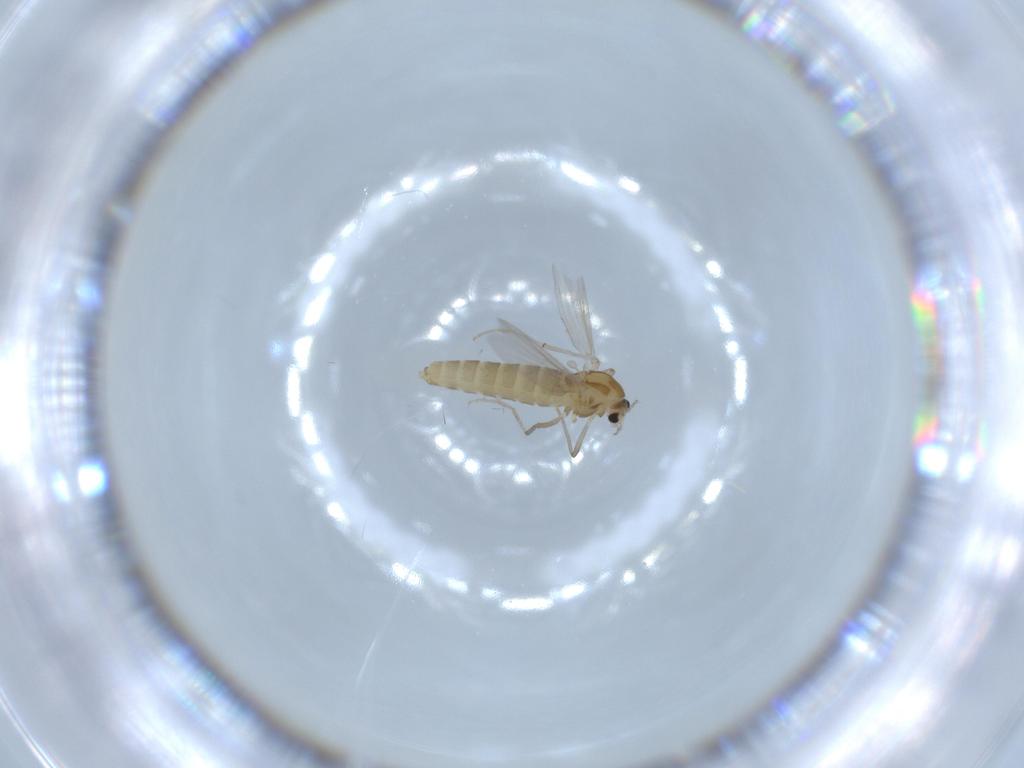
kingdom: Animalia
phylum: Arthropoda
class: Insecta
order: Diptera
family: Chironomidae
